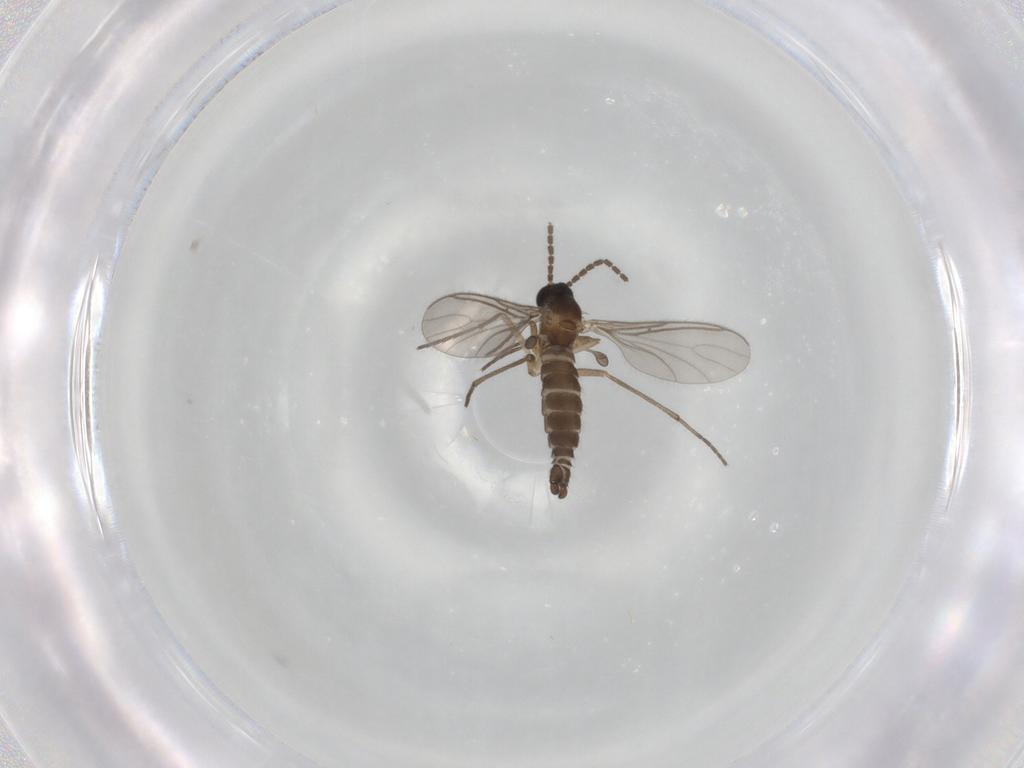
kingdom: Animalia
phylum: Arthropoda
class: Insecta
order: Diptera
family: Sciaridae
